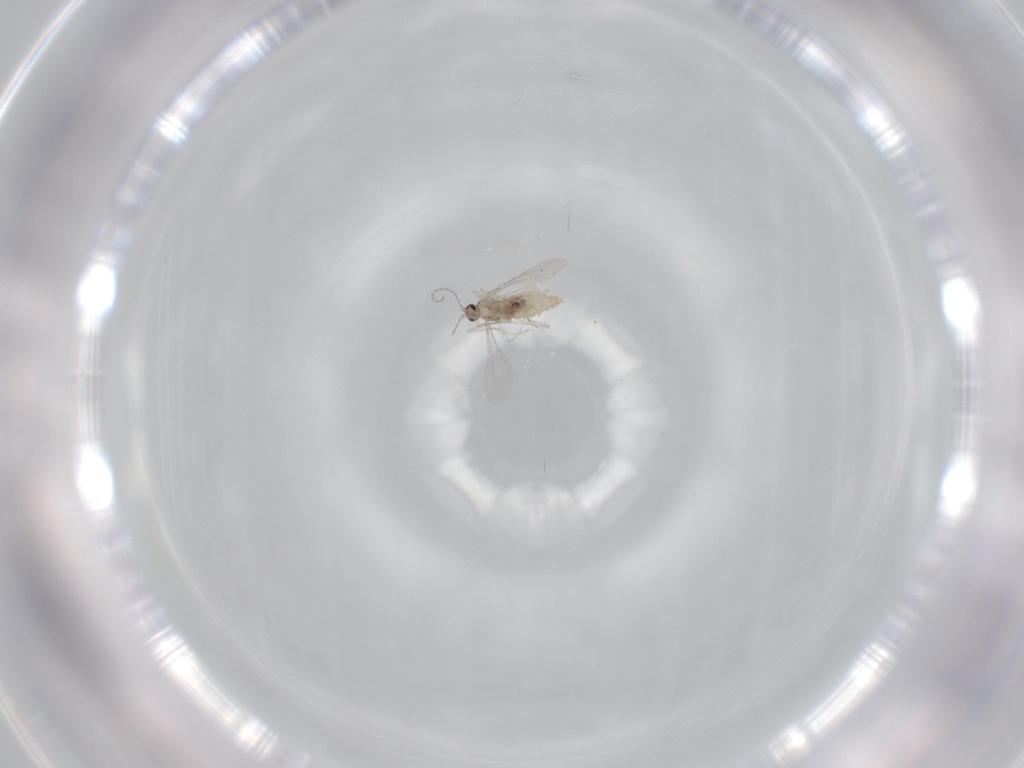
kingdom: Animalia
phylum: Arthropoda
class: Insecta
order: Diptera
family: Cecidomyiidae
